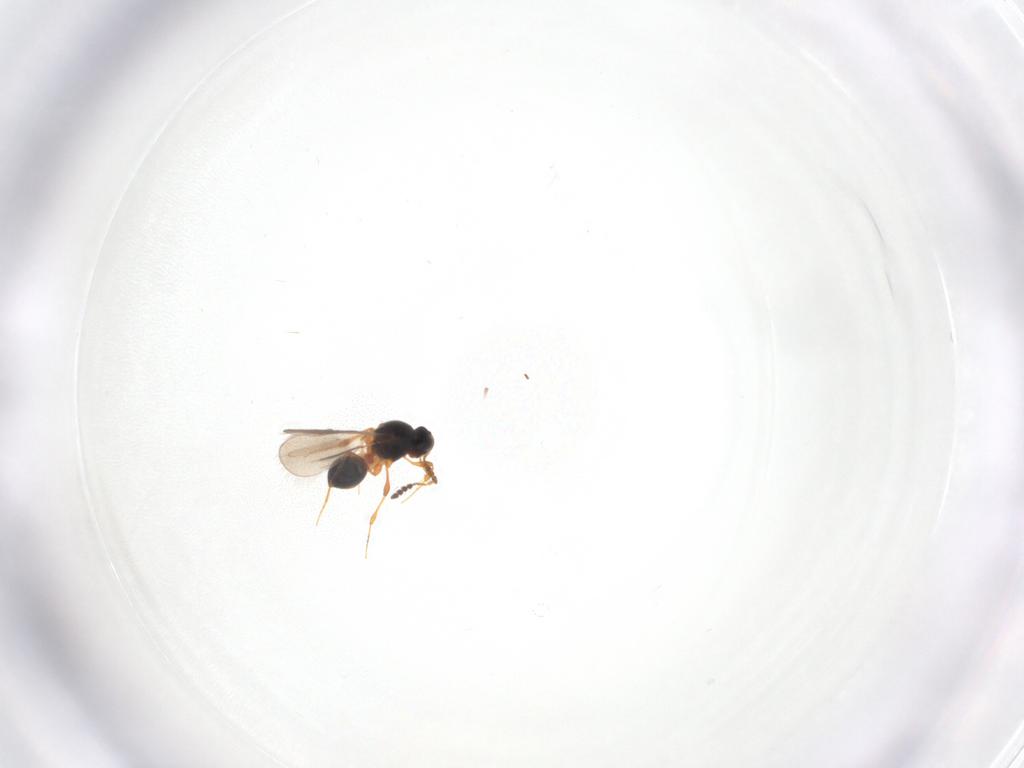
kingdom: Animalia
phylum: Arthropoda
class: Insecta
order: Hymenoptera
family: Platygastridae
